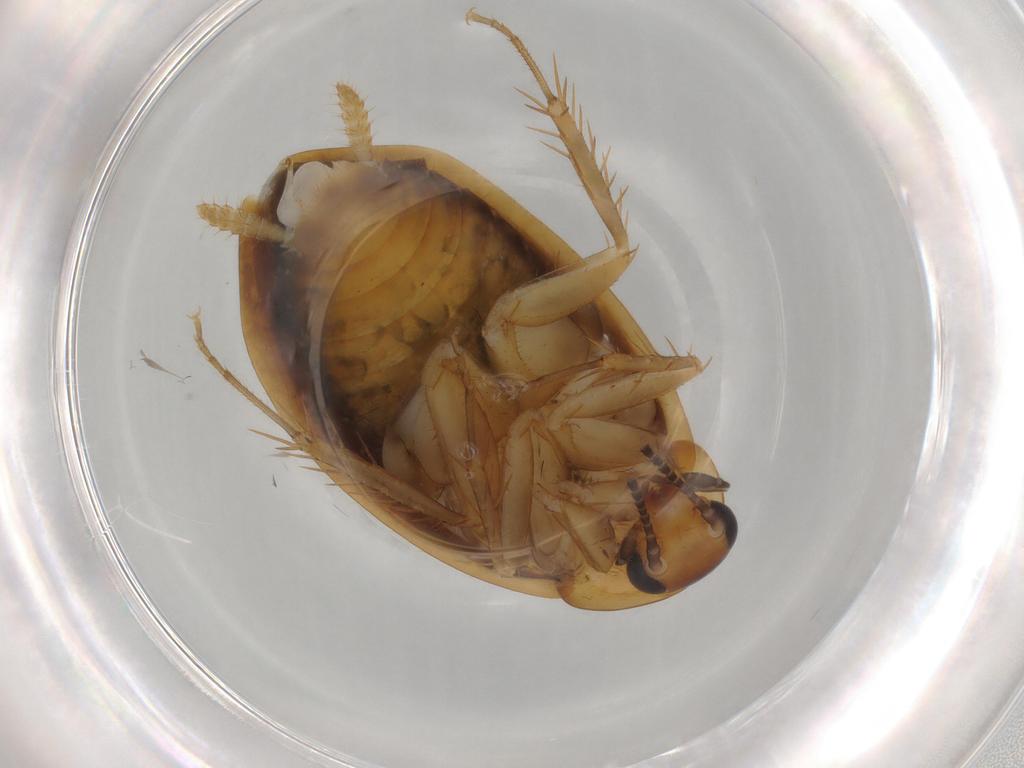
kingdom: Animalia
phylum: Arthropoda
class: Insecta
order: Blattodea
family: Tryonicidae
